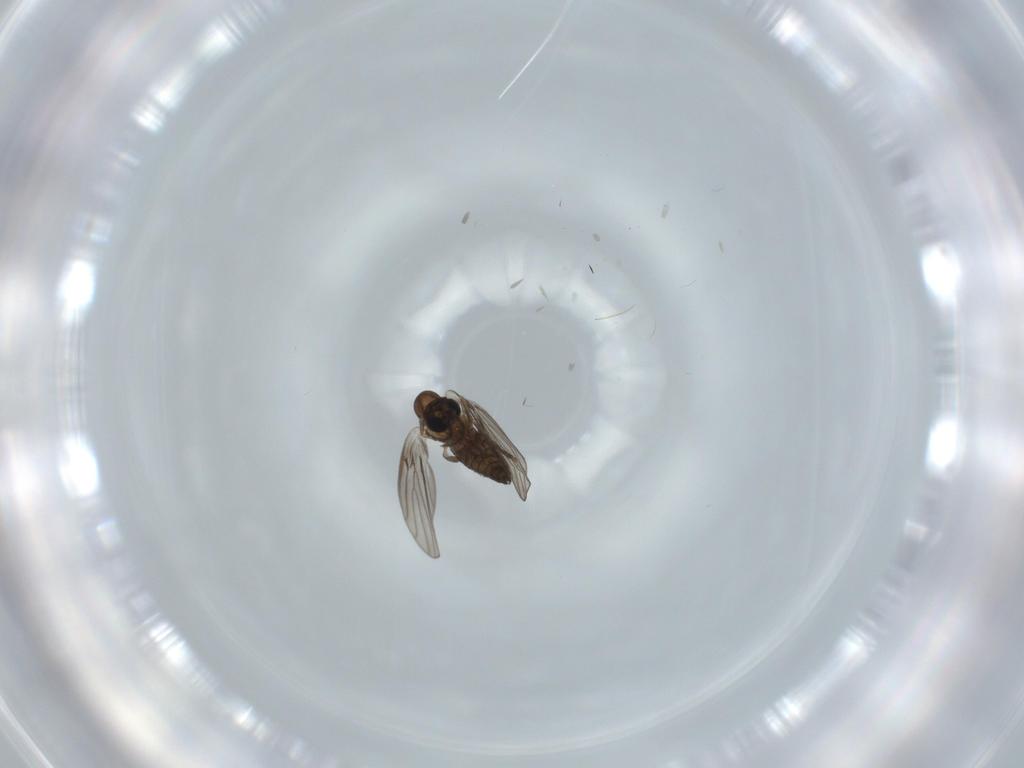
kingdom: Animalia
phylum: Arthropoda
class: Insecta
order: Diptera
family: Psychodidae
